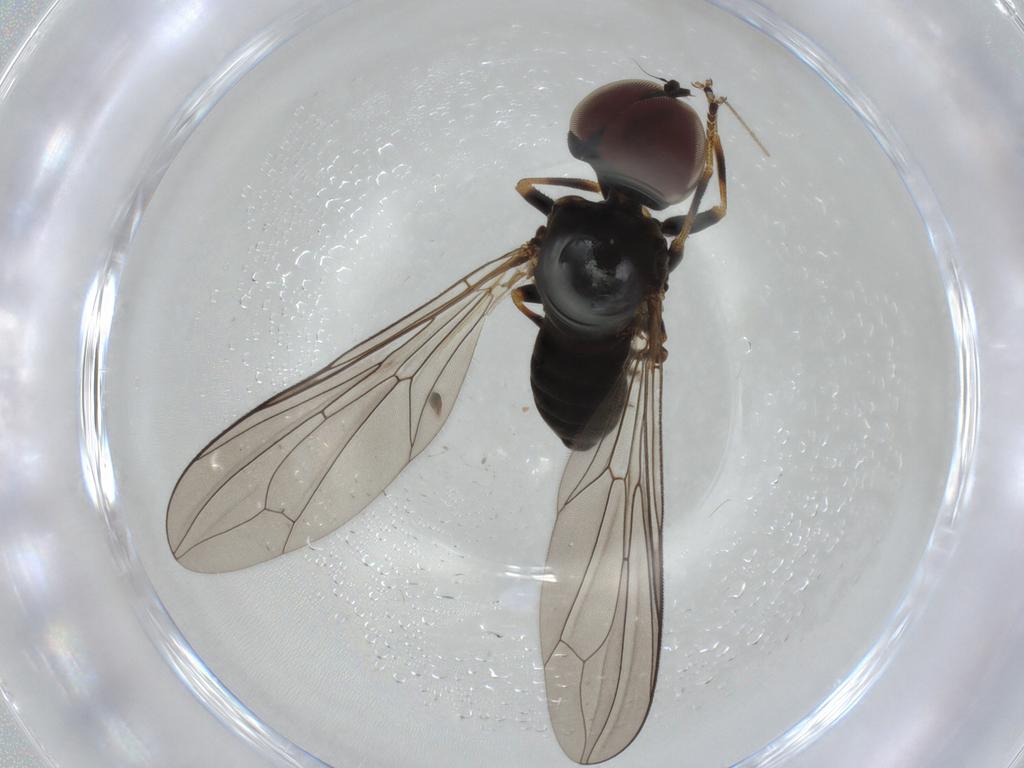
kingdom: Animalia
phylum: Arthropoda
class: Insecta
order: Diptera
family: Pipunculidae
